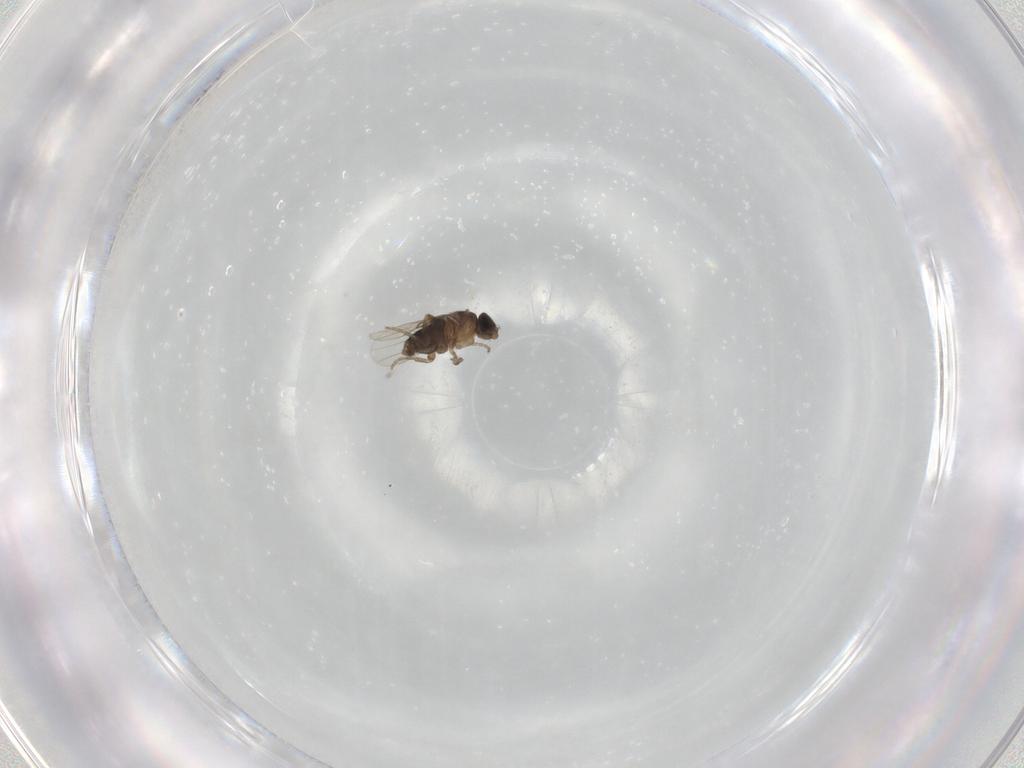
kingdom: Animalia
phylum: Arthropoda
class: Insecta
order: Diptera
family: Phoridae
